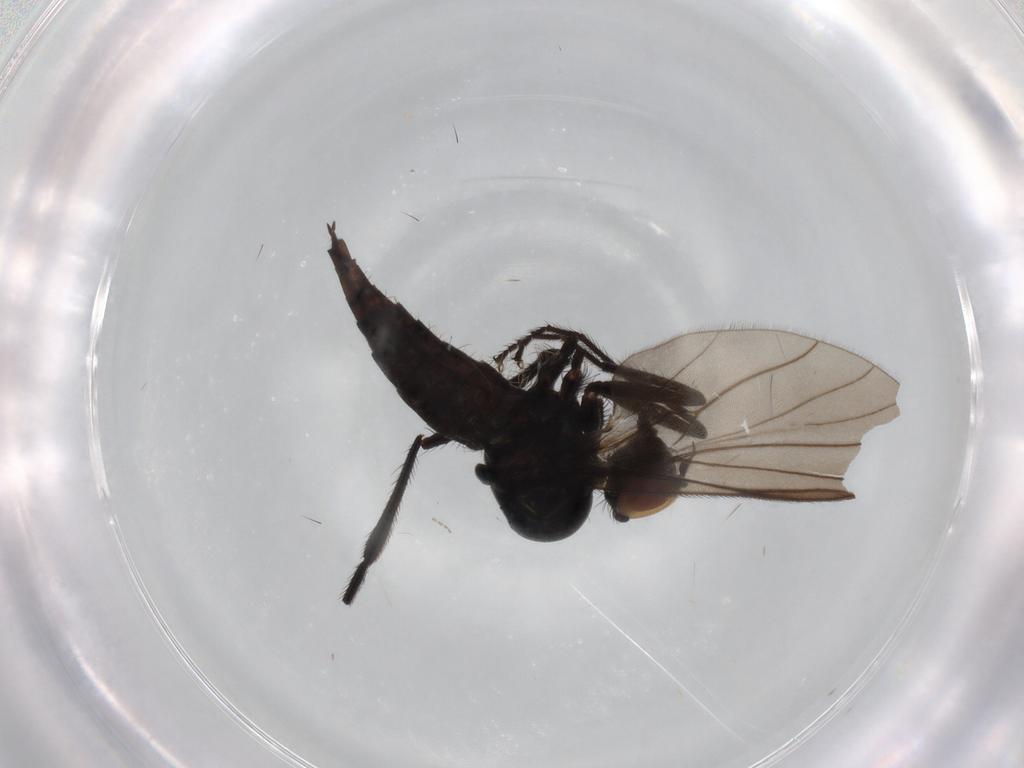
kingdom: Animalia
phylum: Arthropoda
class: Insecta
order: Diptera
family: Hybotidae
